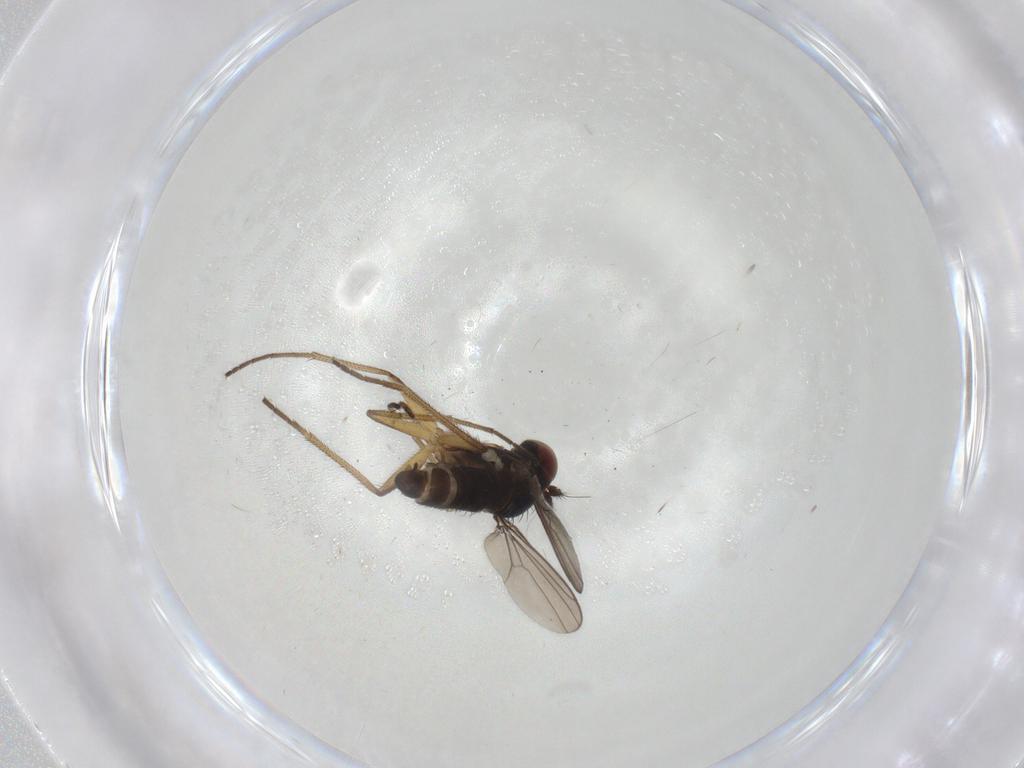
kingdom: Animalia
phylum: Arthropoda
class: Insecta
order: Diptera
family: Dolichopodidae
